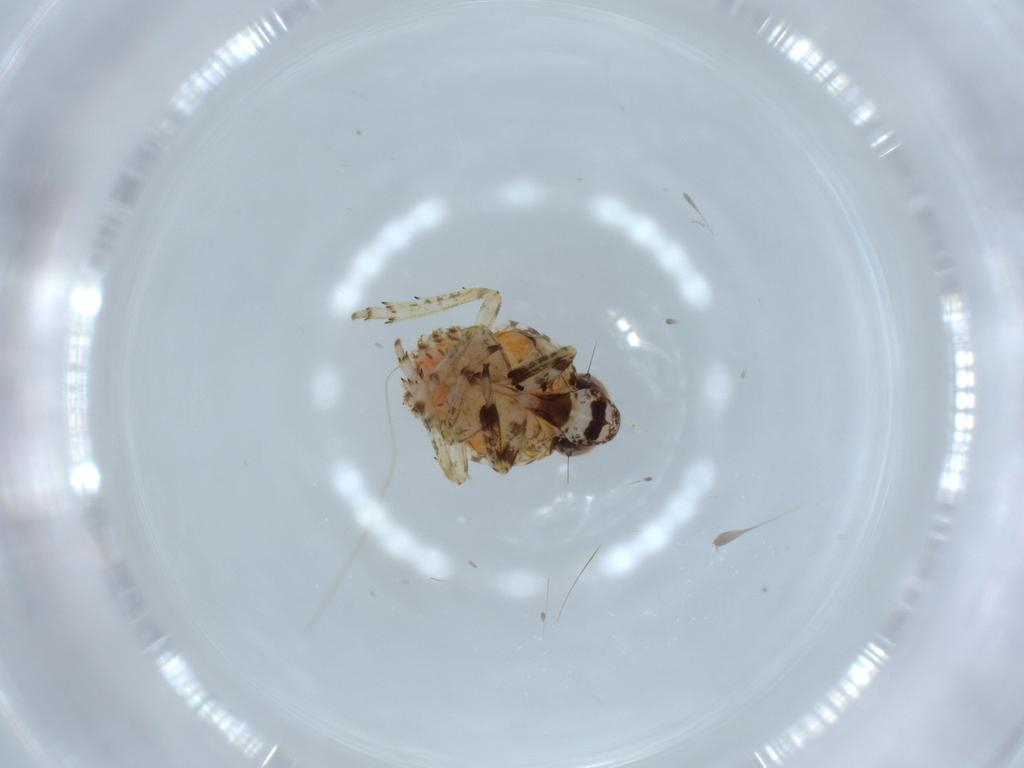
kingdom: Animalia
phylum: Arthropoda
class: Insecta
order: Hemiptera
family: Issidae
